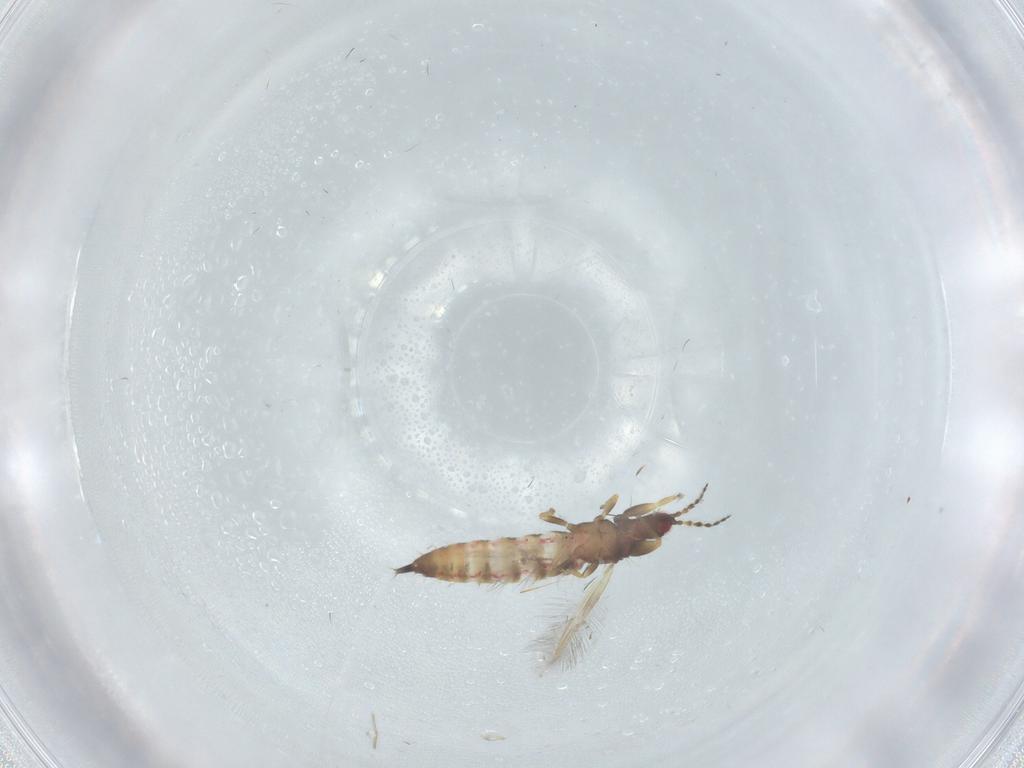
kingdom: Animalia
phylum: Arthropoda
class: Insecta
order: Thysanoptera
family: Phlaeothripidae
